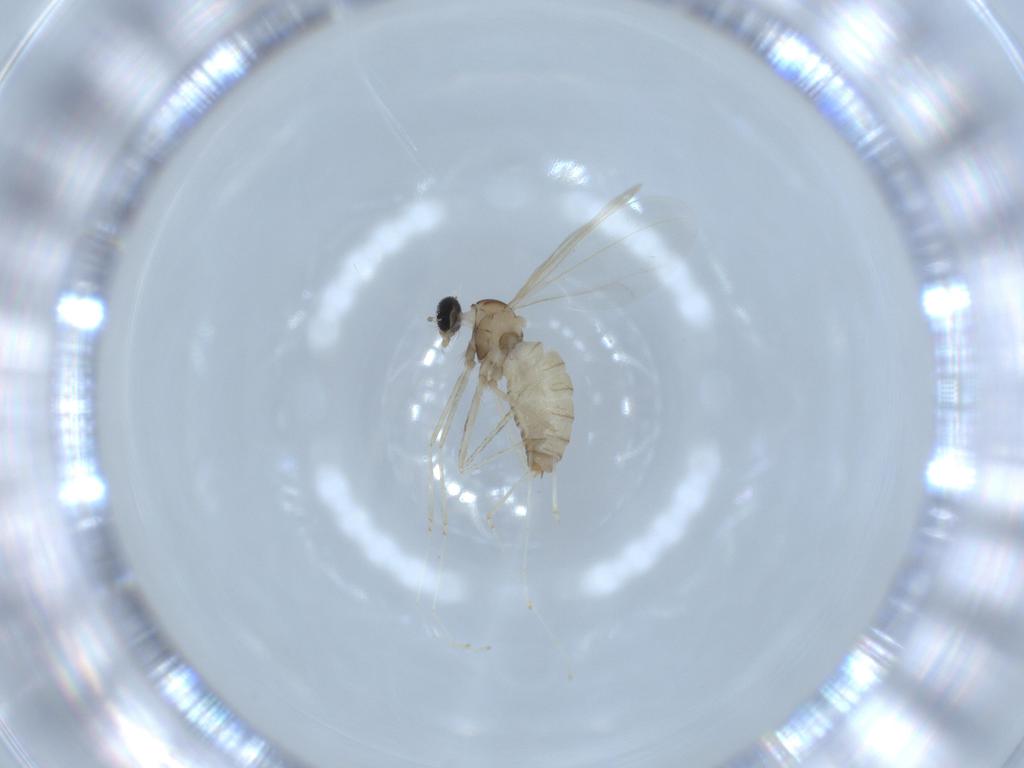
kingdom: Animalia
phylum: Arthropoda
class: Insecta
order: Diptera
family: Cecidomyiidae
